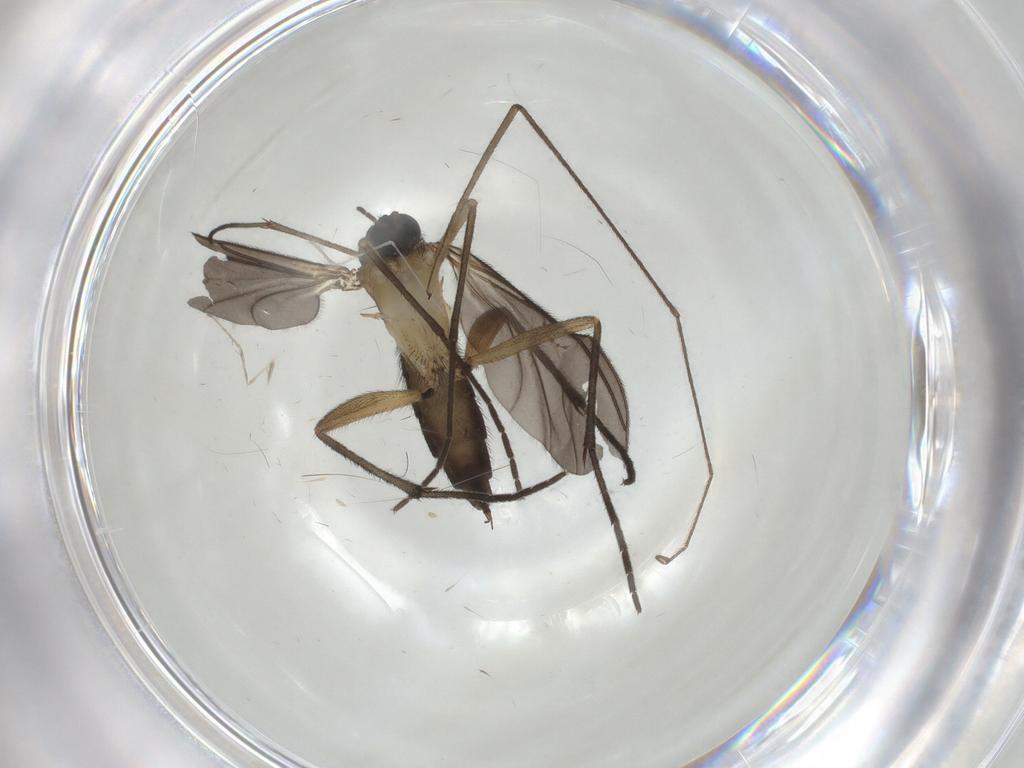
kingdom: Animalia
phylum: Arthropoda
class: Insecta
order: Diptera
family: Sciaridae
